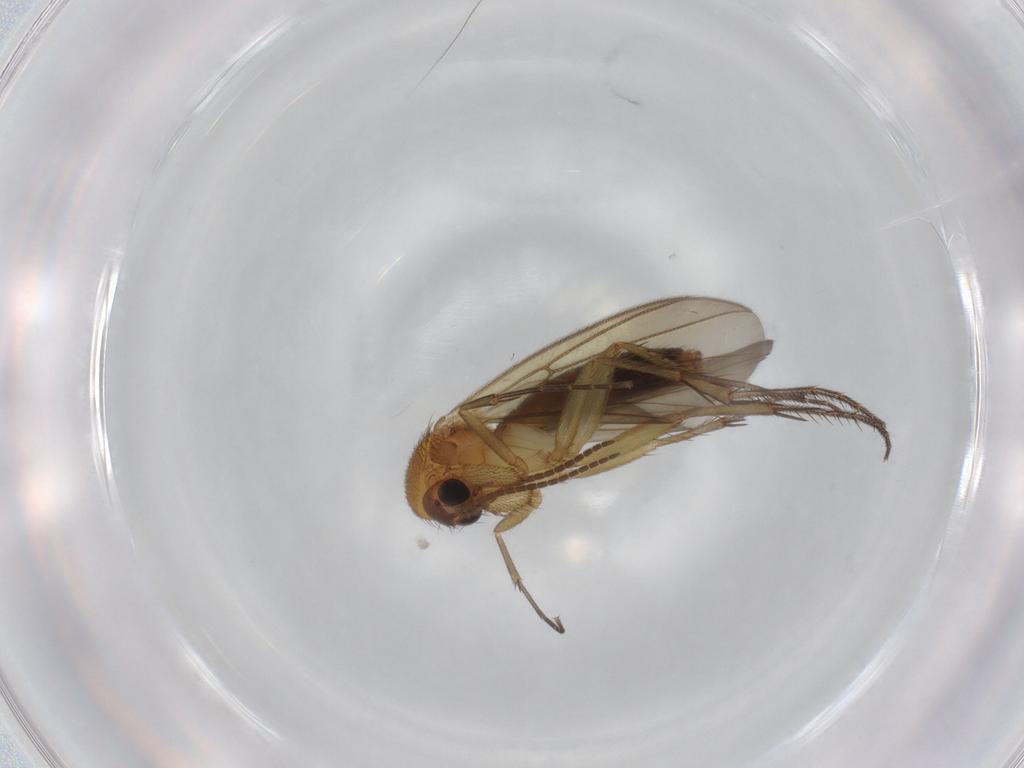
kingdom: Animalia
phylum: Arthropoda
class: Insecta
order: Diptera
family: Mycetophilidae
